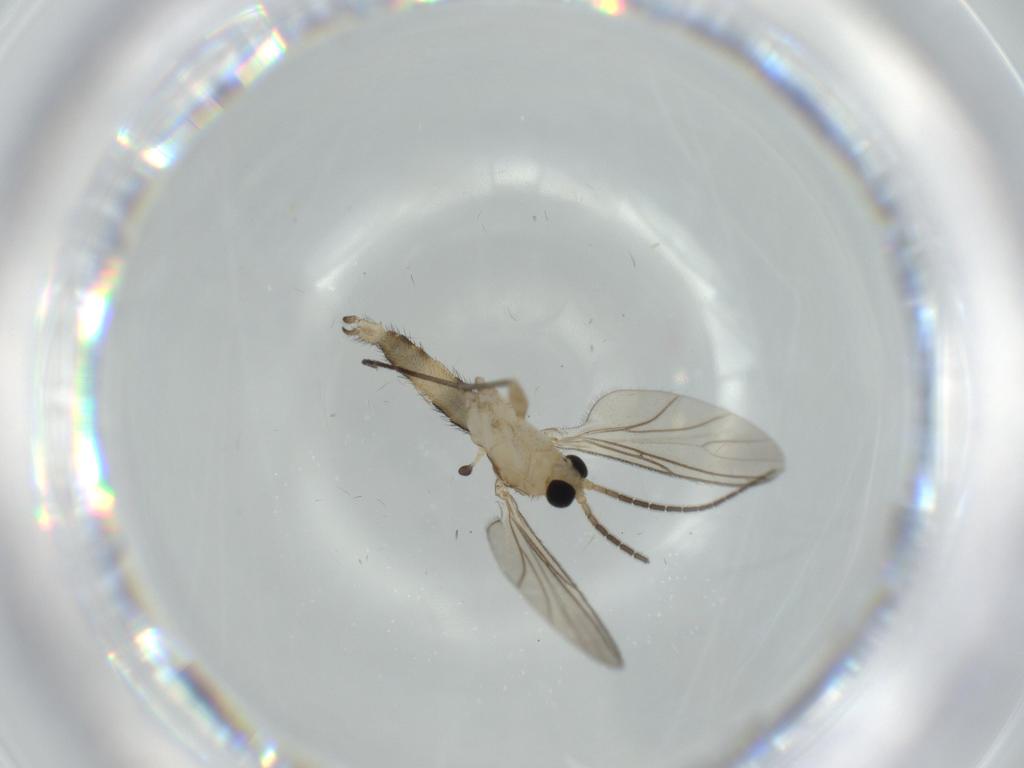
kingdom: Animalia
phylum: Arthropoda
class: Insecta
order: Diptera
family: Sciaridae
